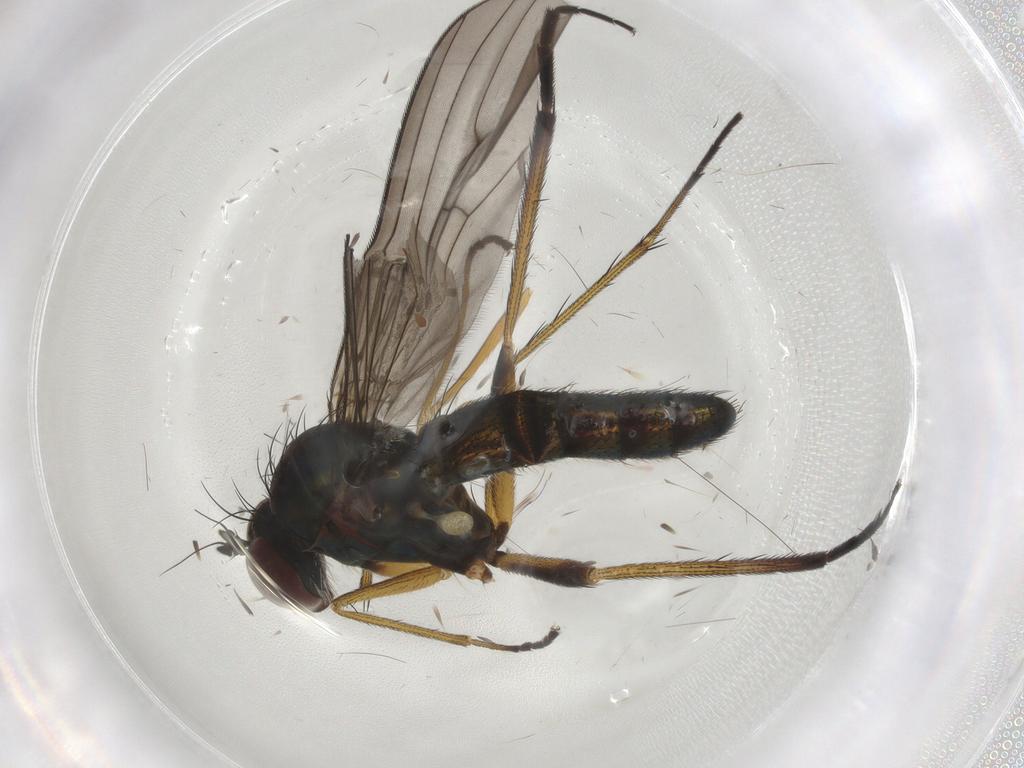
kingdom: Animalia
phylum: Arthropoda
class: Insecta
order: Diptera
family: Dolichopodidae
